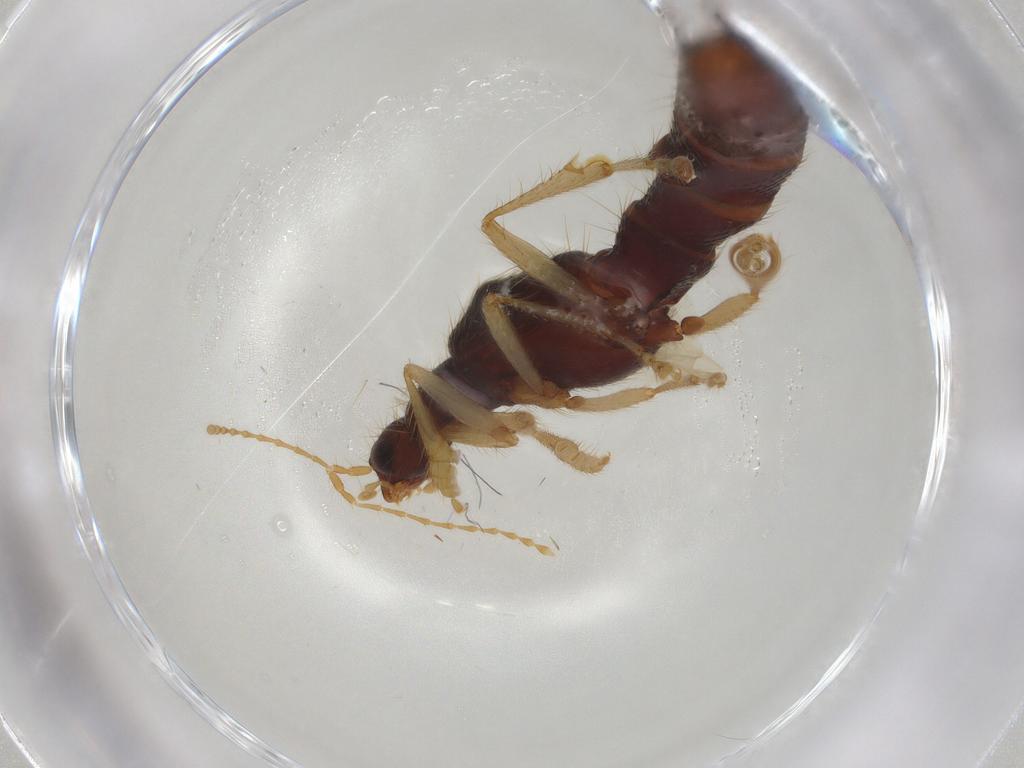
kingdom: Animalia
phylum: Arthropoda
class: Insecta
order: Coleoptera
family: Staphylinidae
